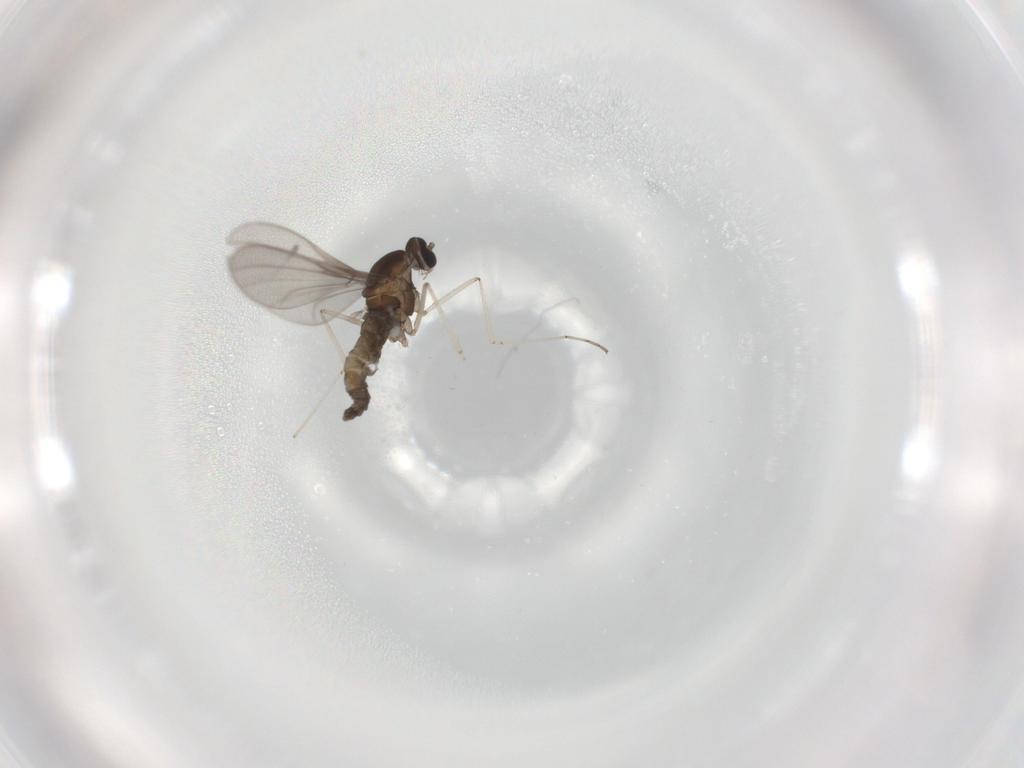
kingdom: Animalia
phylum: Arthropoda
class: Insecta
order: Diptera
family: Cecidomyiidae
